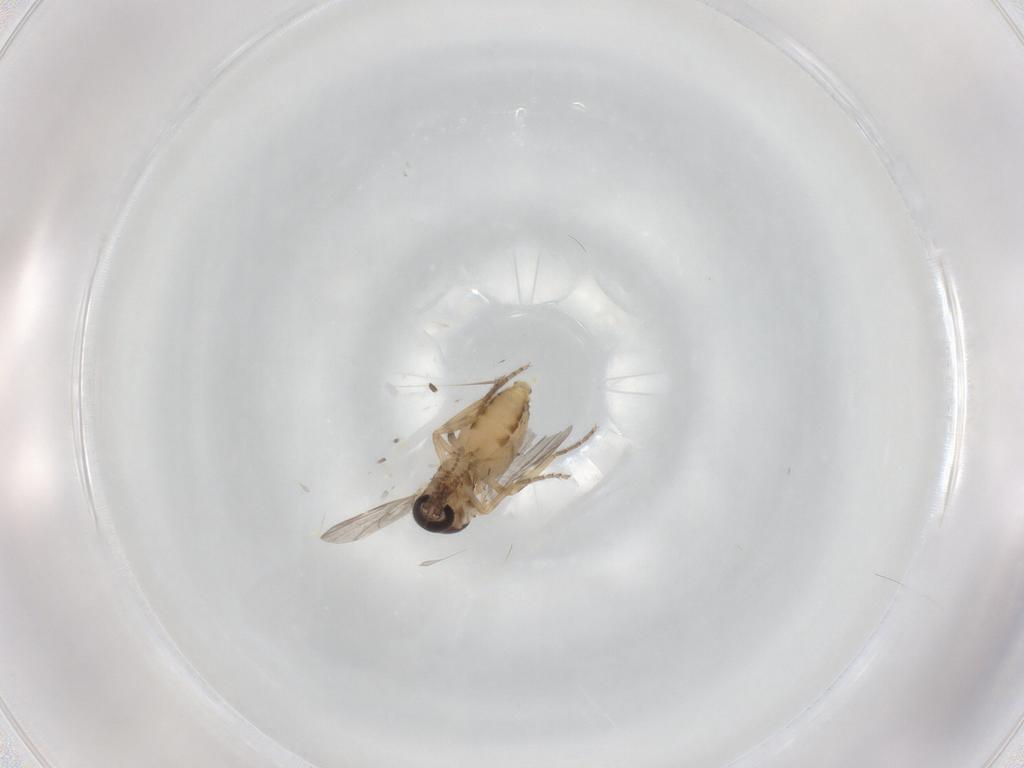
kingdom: Animalia
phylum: Arthropoda
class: Insecta
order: Diptera
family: Ceratopogonidae
